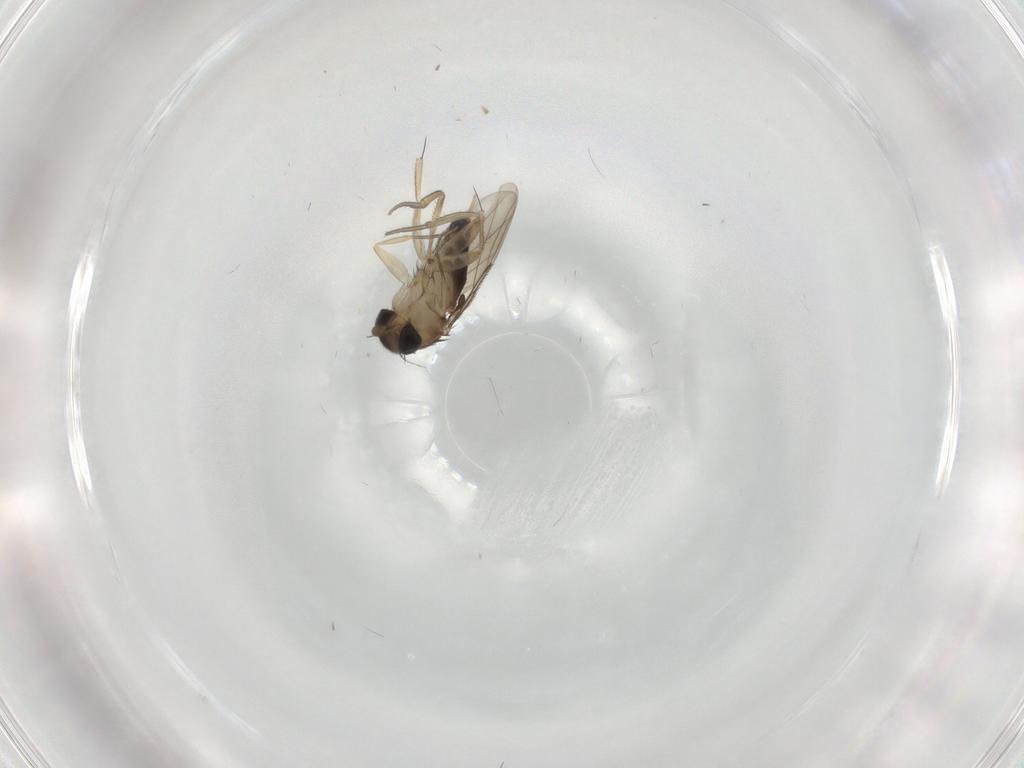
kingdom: Animalia
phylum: Arthropoda
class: Insecta
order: Diptera
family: Phoridae
